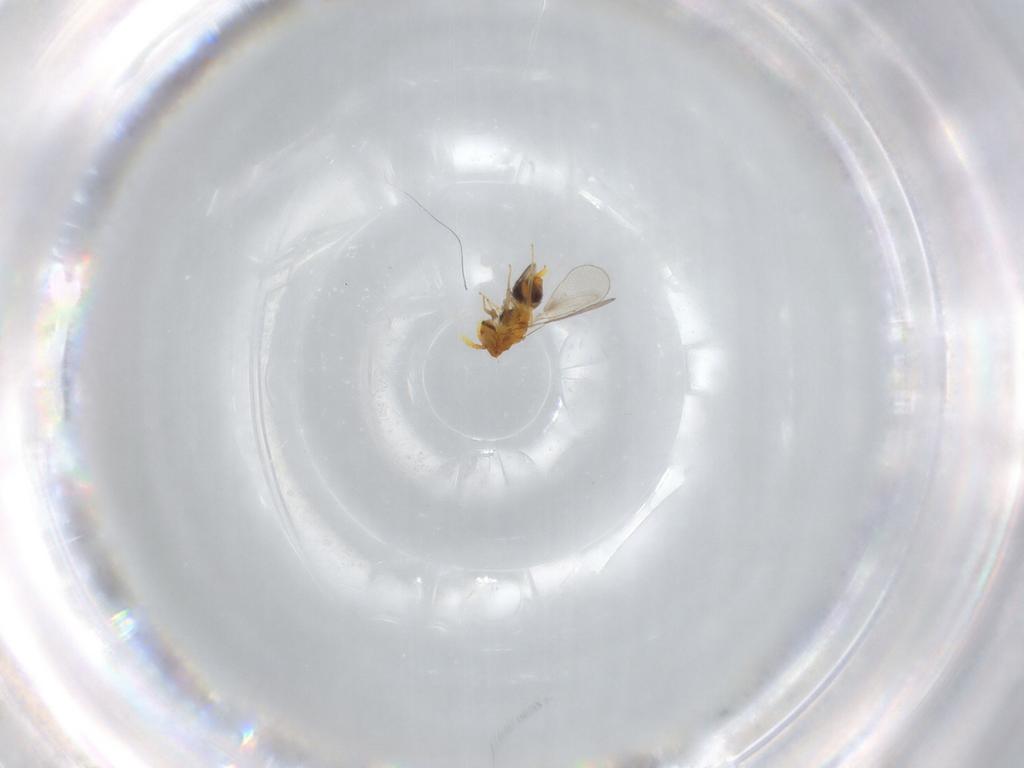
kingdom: Animalia
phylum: Arthropoda
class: Insecta
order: Hymenoptera
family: Trichogrammatidae
